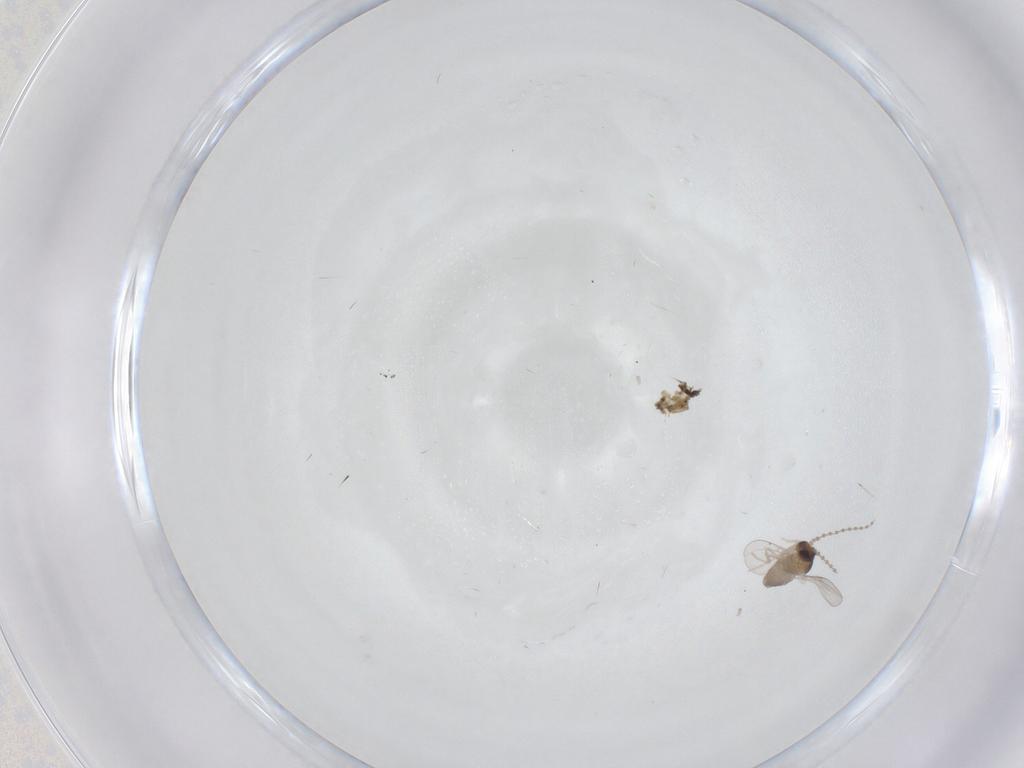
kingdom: Animalia
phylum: Arthropoda
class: Insecta
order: Diptera
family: Cecidomyiidae
